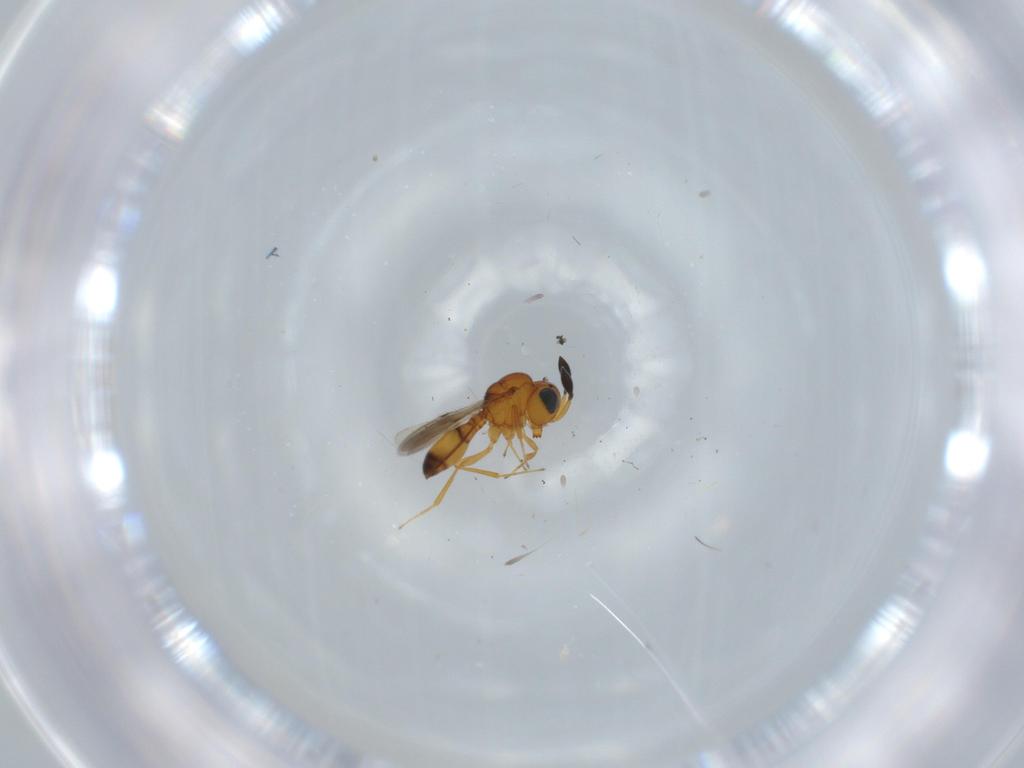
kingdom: Animalia
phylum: Arthropoda
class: Insecta
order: Hymenoptera
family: Scelionidae
